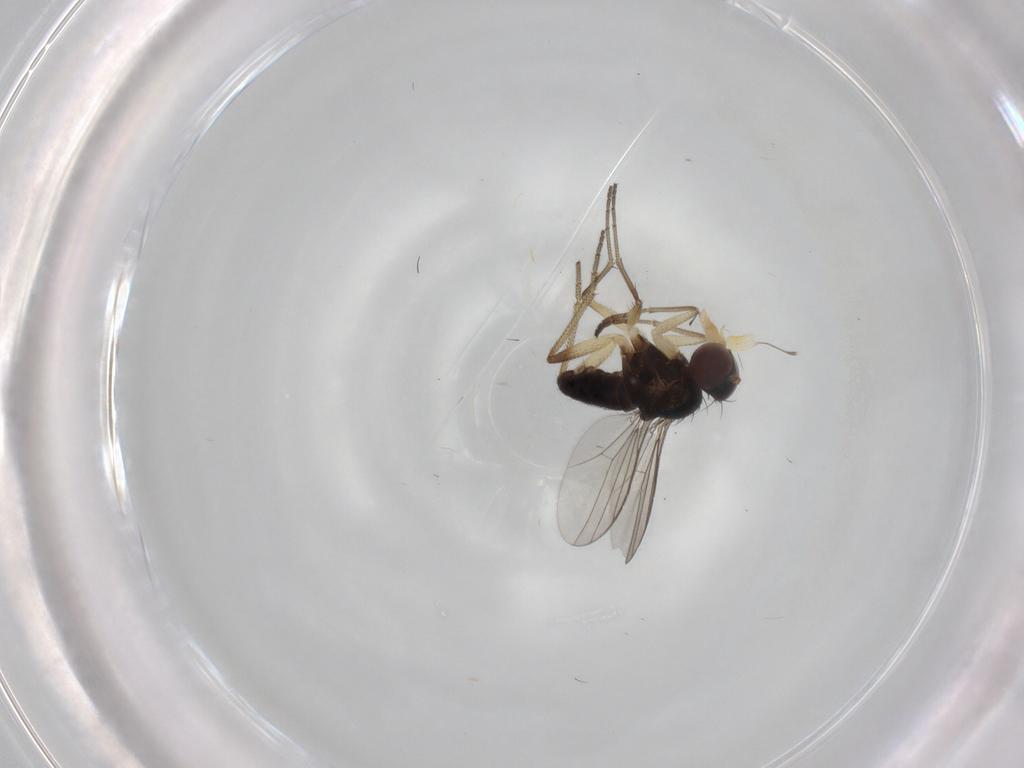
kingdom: Animalia
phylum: Arthropoda
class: Insecta
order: Diptera
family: Dolichopodidae
